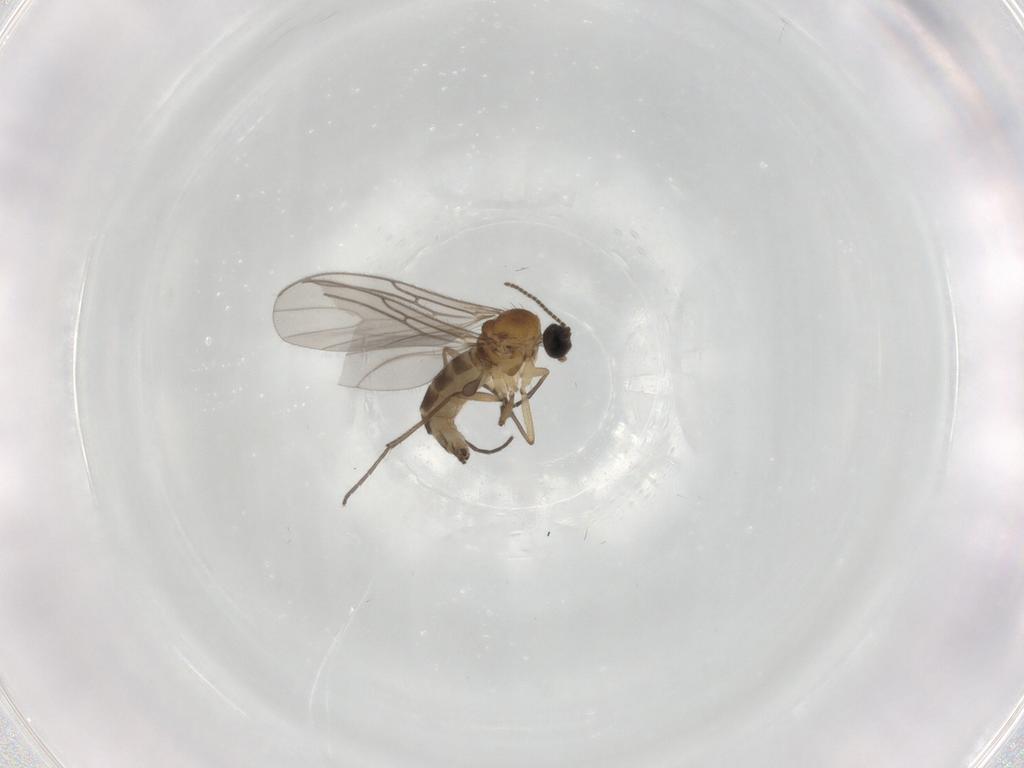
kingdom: Animalia
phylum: Arthropoda
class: Insecta
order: Diptera
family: Sciaridae
